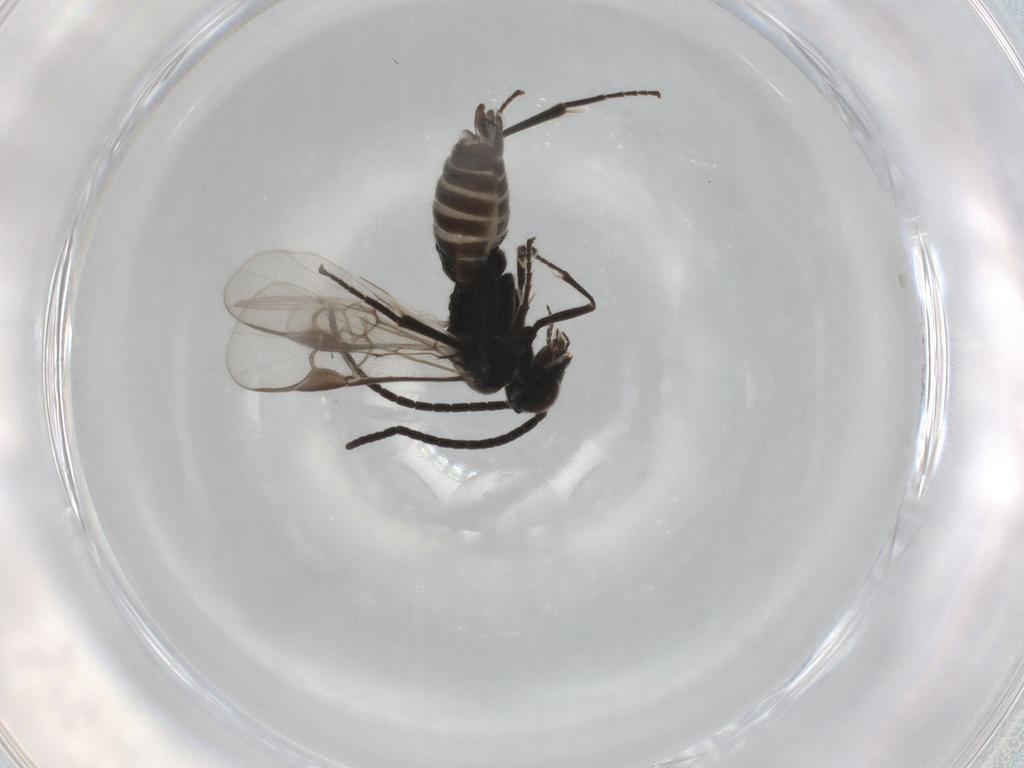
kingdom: Animalia
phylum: Arthropoda
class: Insecta
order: Hymenoptera
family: Braconidae
